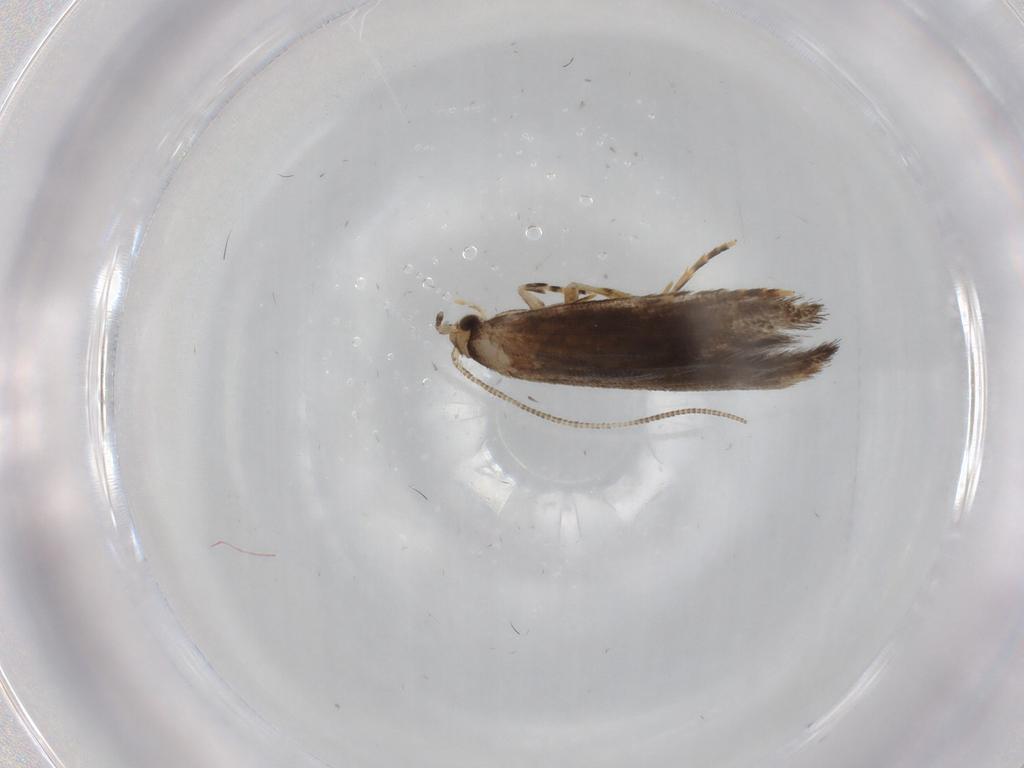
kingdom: Animalia
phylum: Arthropoda
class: Insecta
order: Lepidoptera
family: Tineidae
